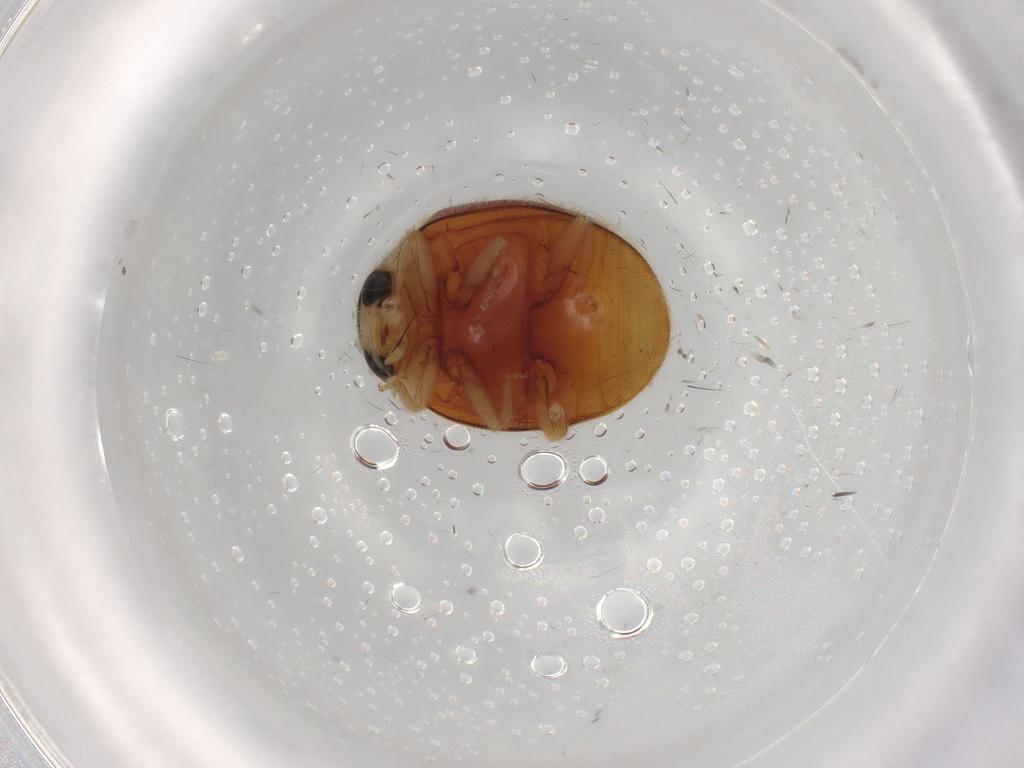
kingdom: Animalia
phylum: Arthropoda
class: Insecta
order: Coleoptera
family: Coccinellidae
